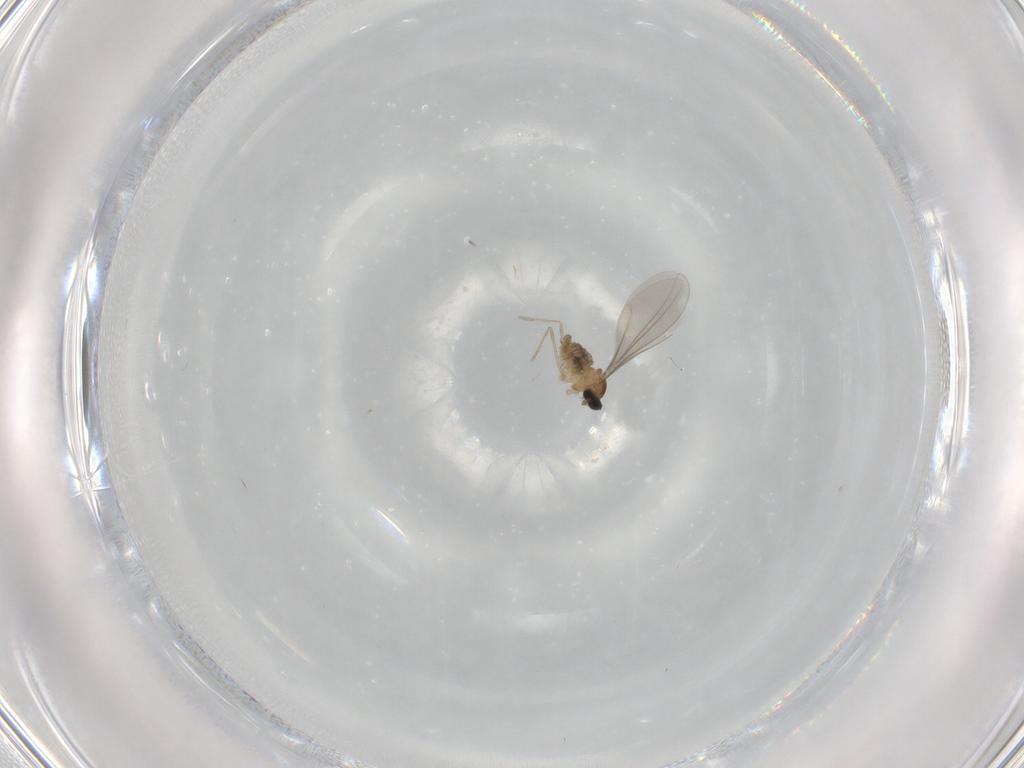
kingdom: Animalia
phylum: Arthropoda
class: Insecta
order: Diptera
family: Cecidomyiidae
